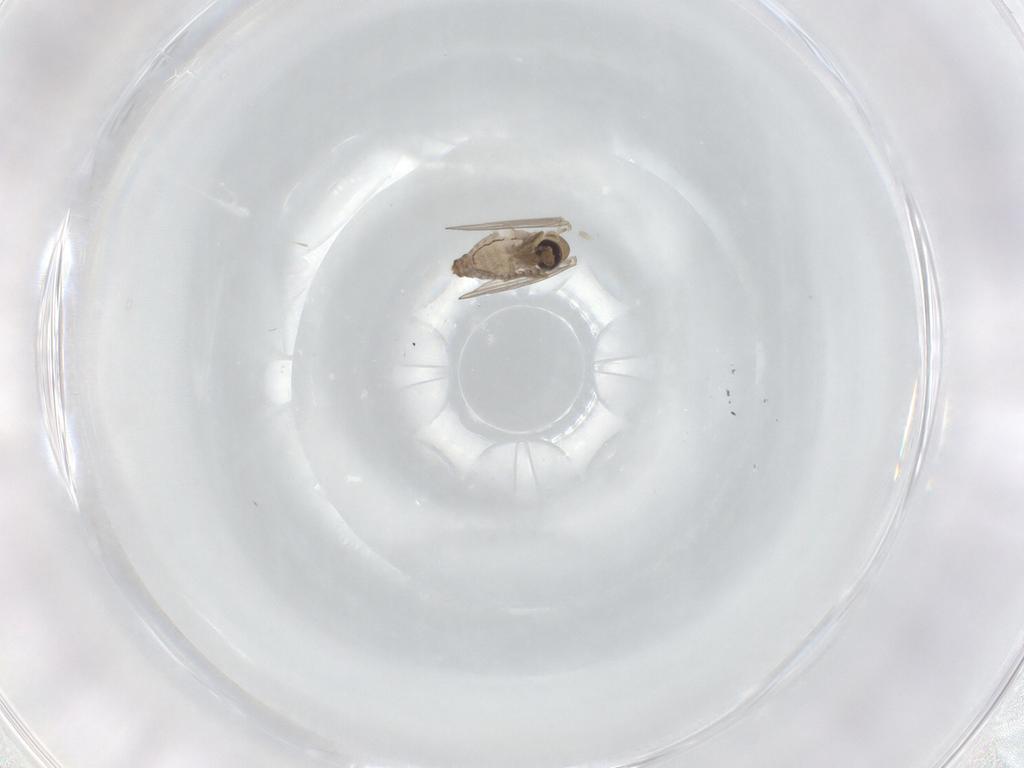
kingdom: Animalia
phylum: Arthropoda
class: Insecta
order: Diptera
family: Psychodidae
